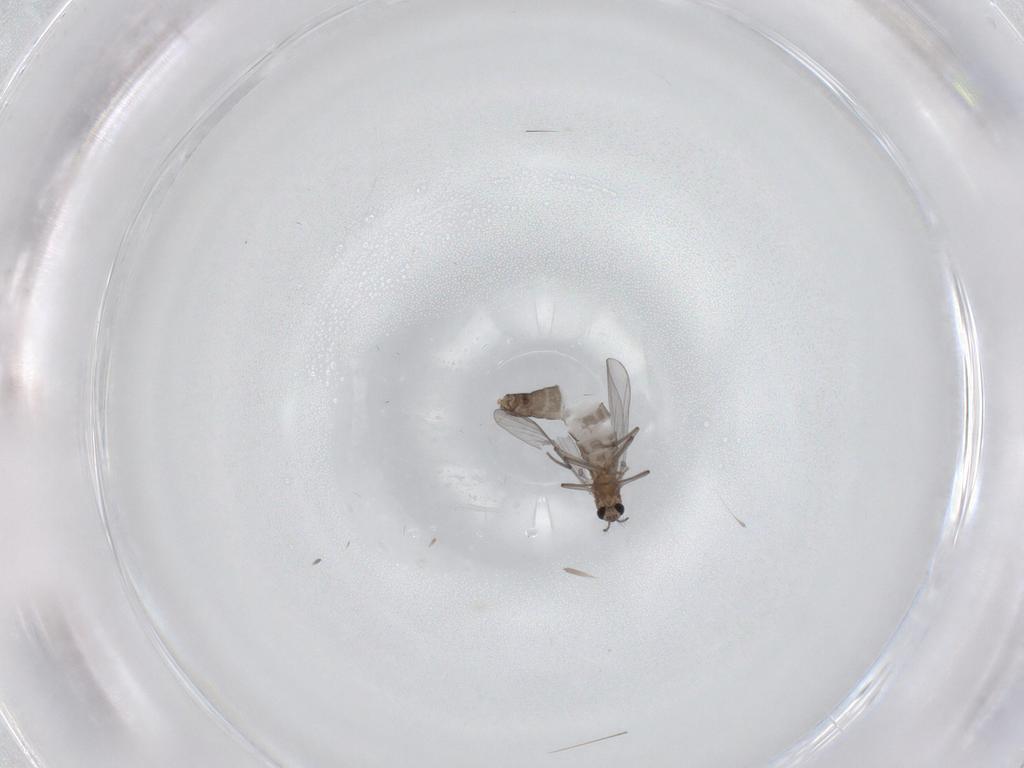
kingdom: Animalia
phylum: Arthropoda
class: Insecta
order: Diptera
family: Chironomidae
